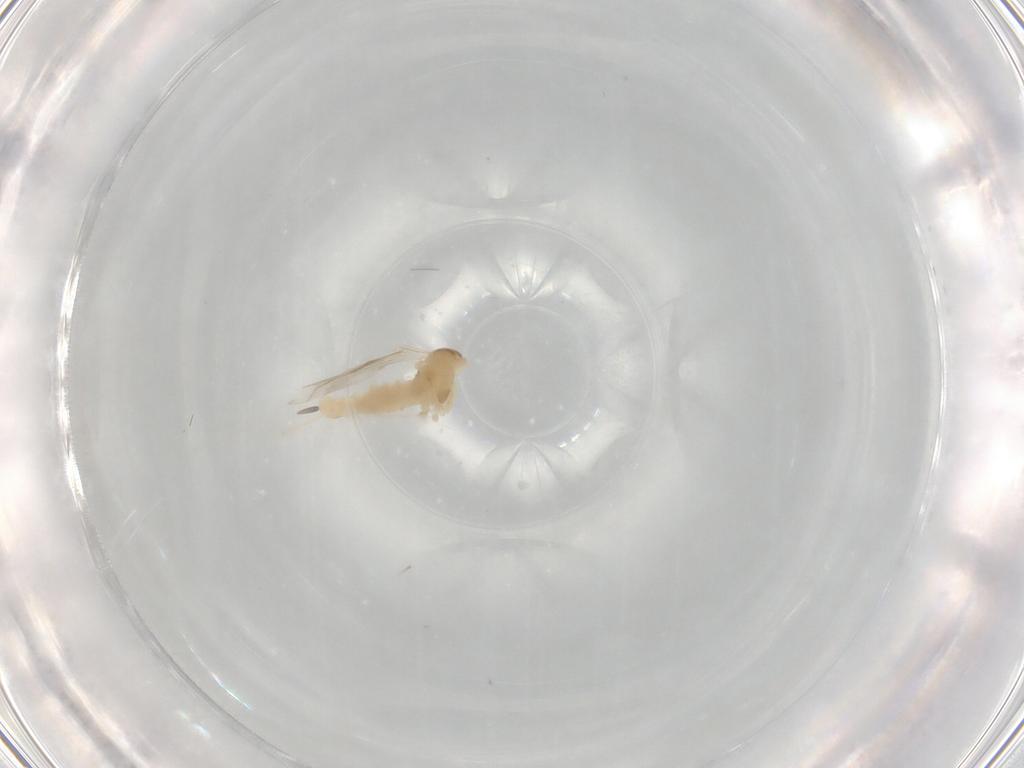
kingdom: Animalia
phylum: Arthropoda
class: Insecta
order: Diptera
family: Cecidomyiidae
